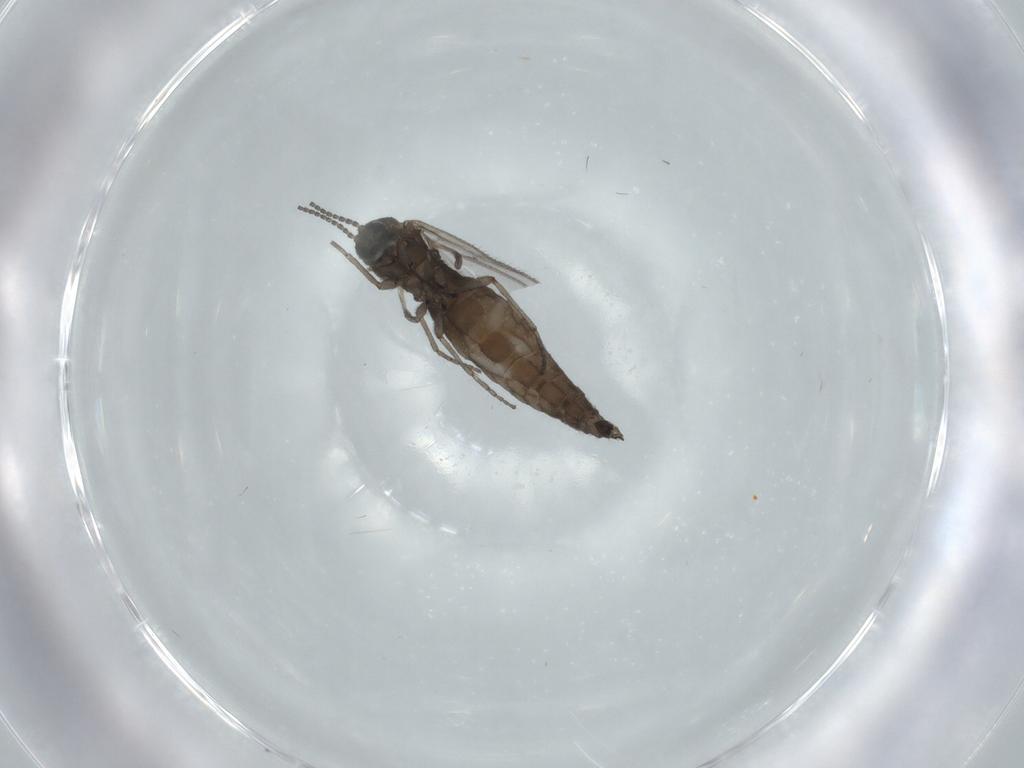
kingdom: Animalia
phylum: Arthropoda
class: Insecta
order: Diptera
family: Sciaridae
